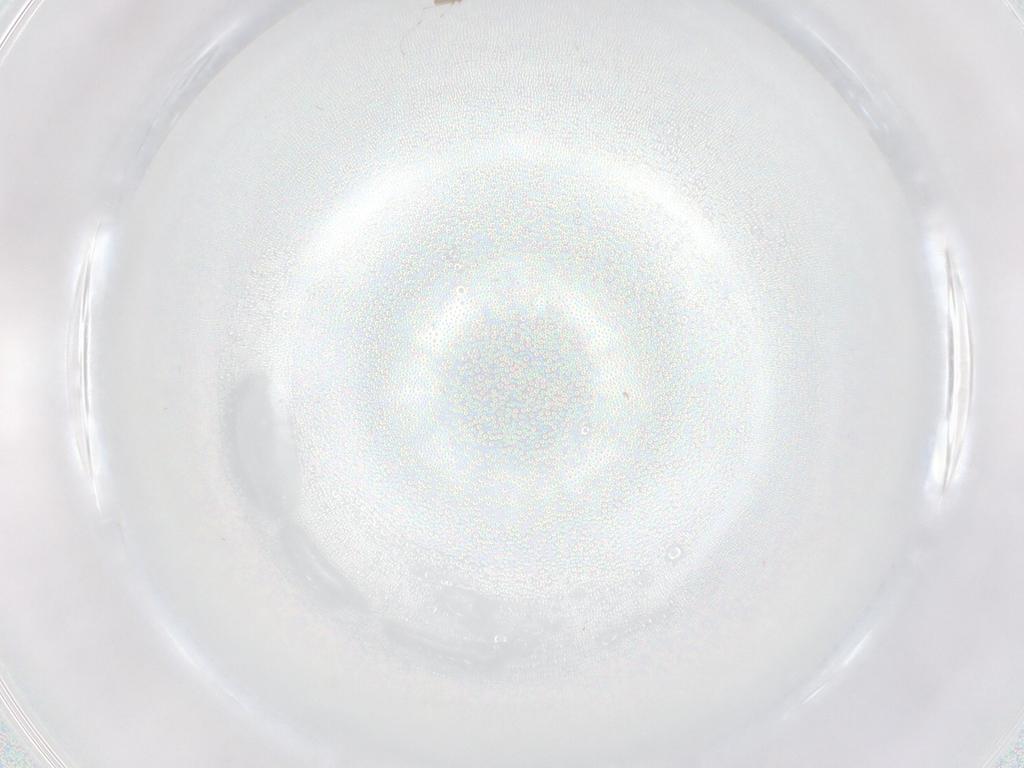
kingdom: Animalia
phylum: Arthropoda
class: Insecta
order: Diptera
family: Cecidomyiidae
